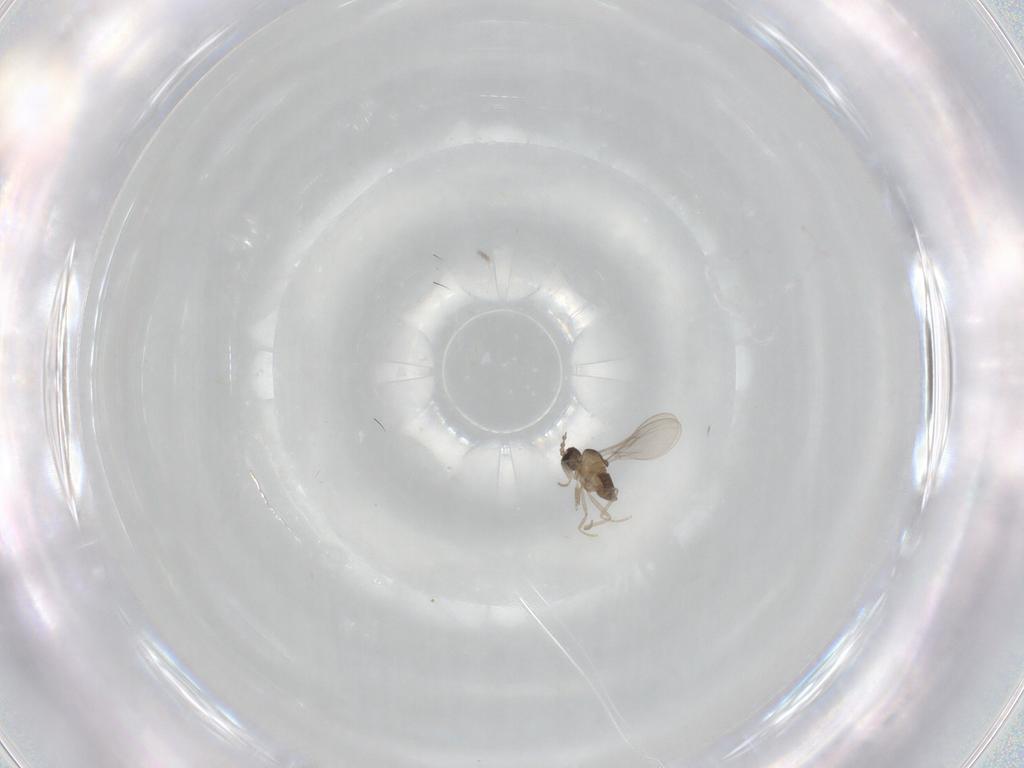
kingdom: Animalia
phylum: Arthropoda
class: Insecta
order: Diptera
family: Cecidomyiidae
